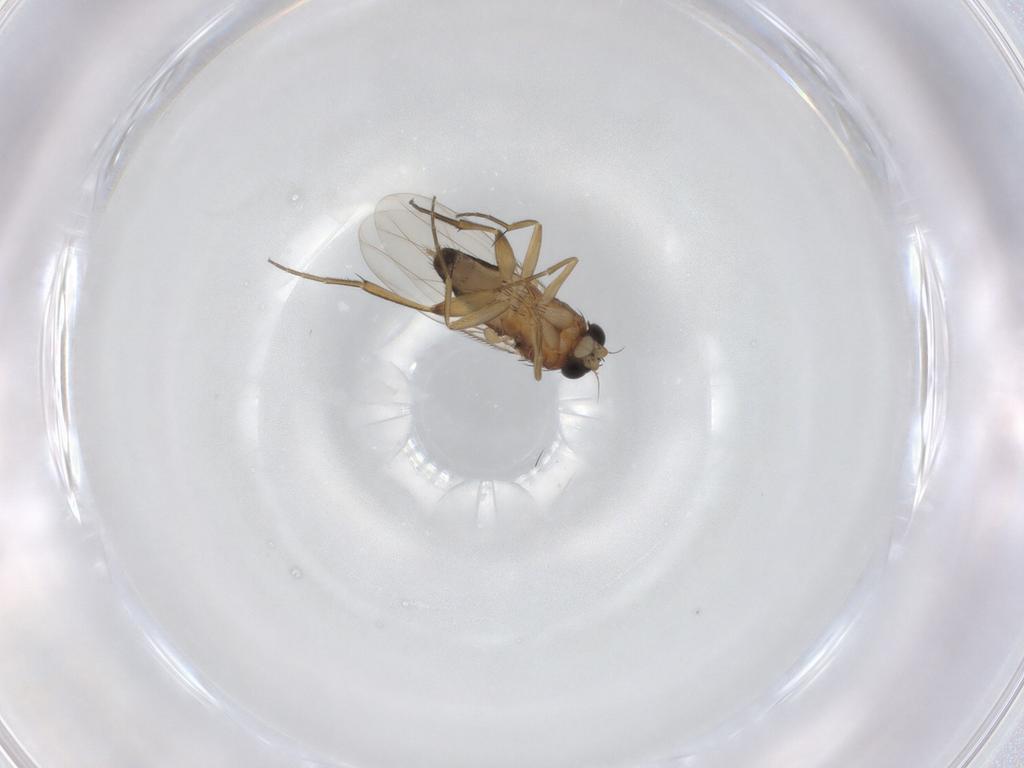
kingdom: Animalia
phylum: Arthropoda
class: Insecta
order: Diptera
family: Phoridae
